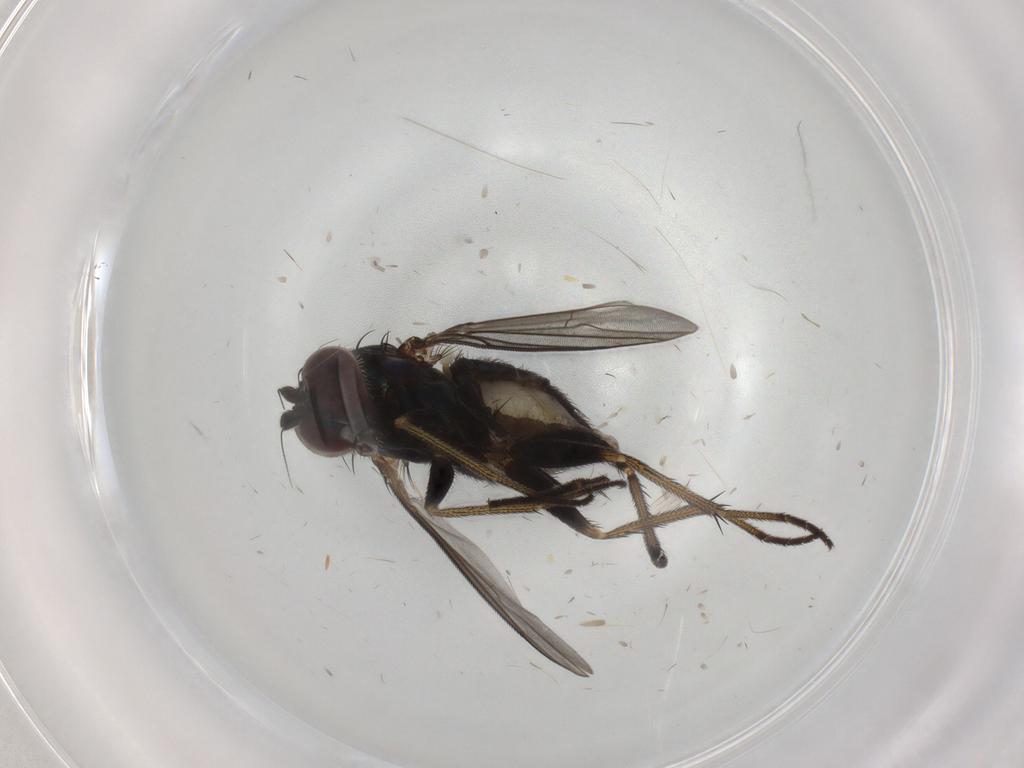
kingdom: Animalia
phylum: Arthropoda
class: Insecta
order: Diptera
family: Culicidae
